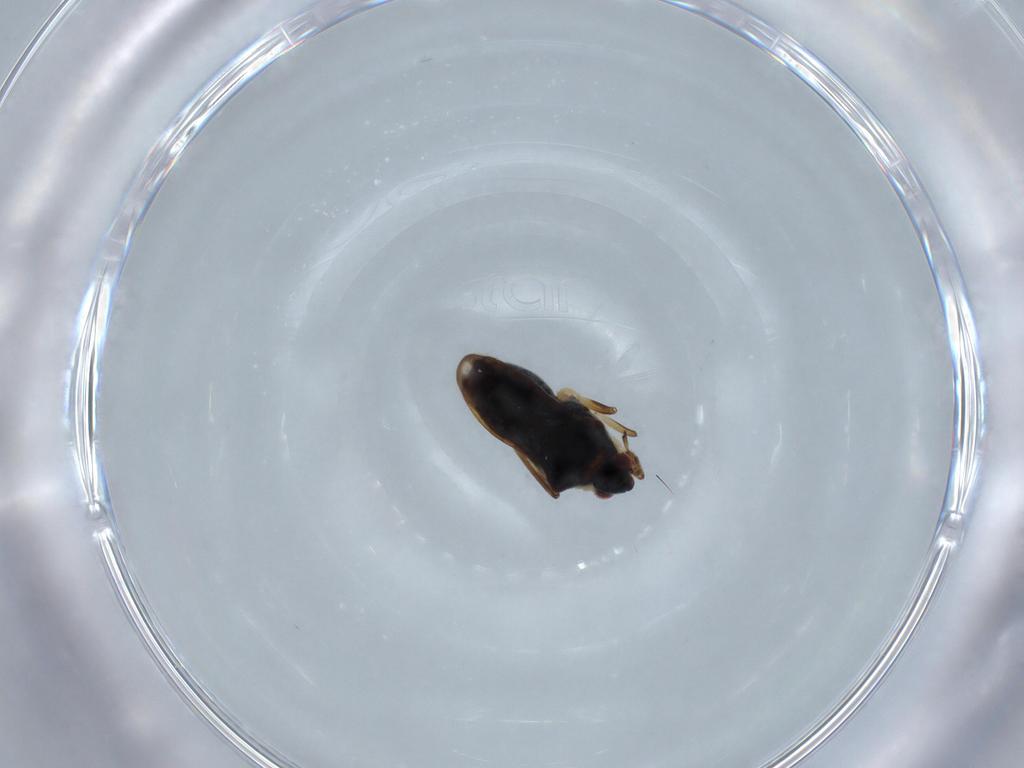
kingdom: Animalia
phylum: Arthropoda
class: Insecta
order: Hemiptera
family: Veliidae
